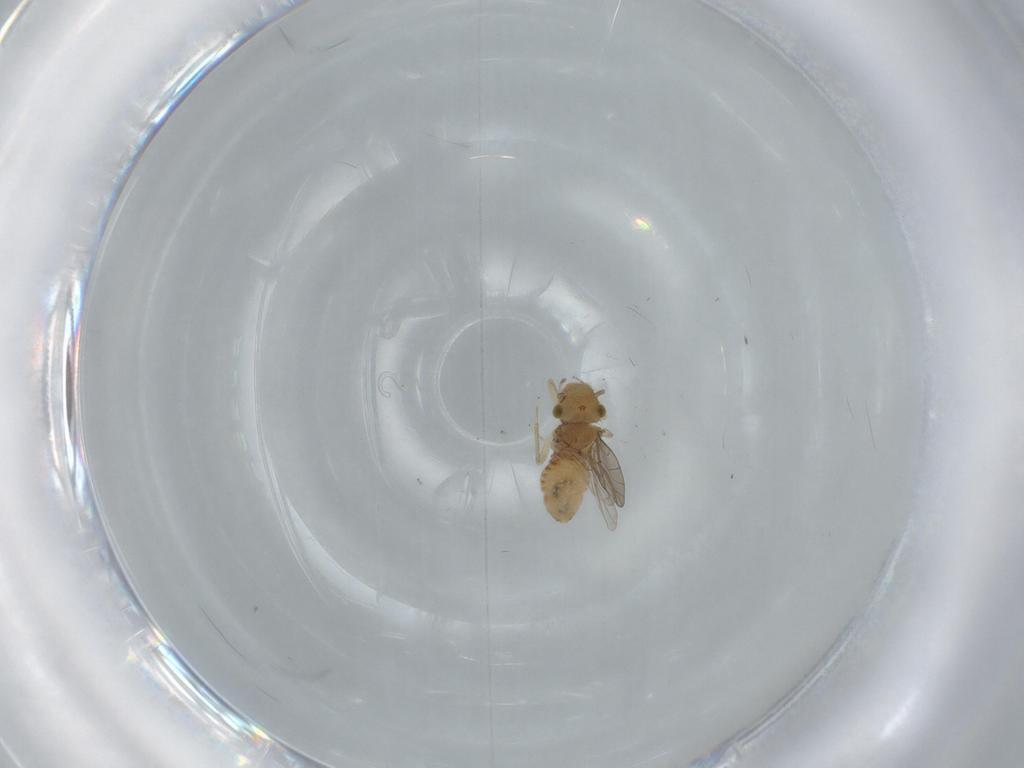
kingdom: Animalia
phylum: Arthropoda
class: Insecta
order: Psocodea
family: Ectopsocidae
